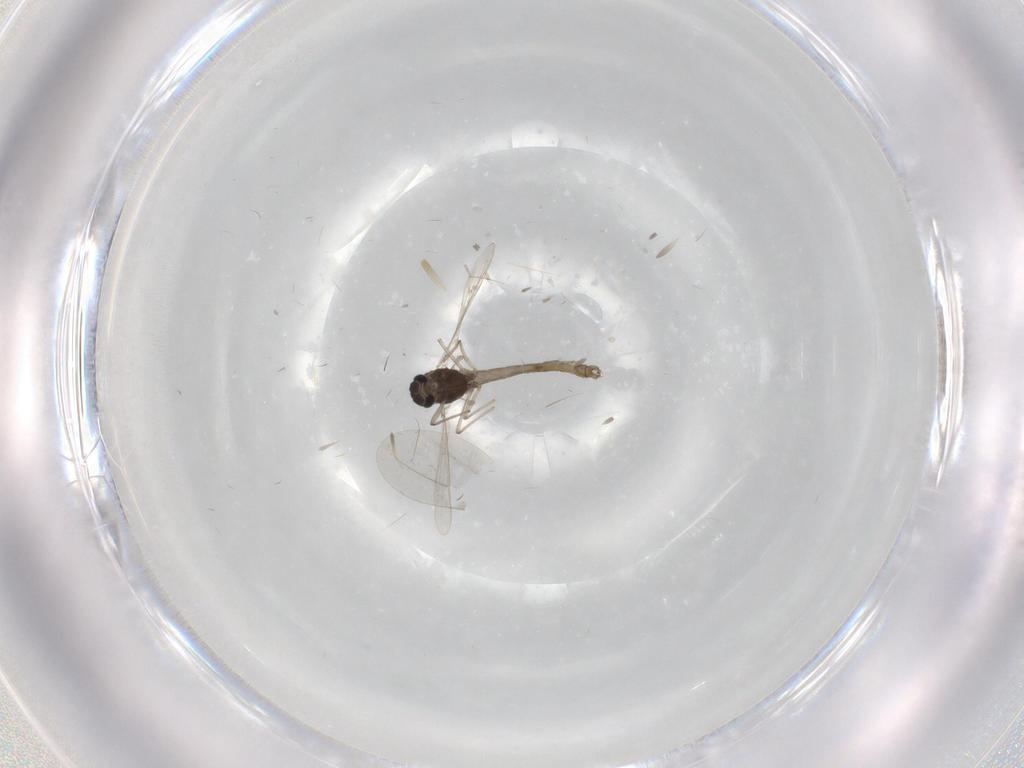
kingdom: Animalia
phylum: Arthropoda
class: Insecta
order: Diptera
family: Cecidomyiidae
